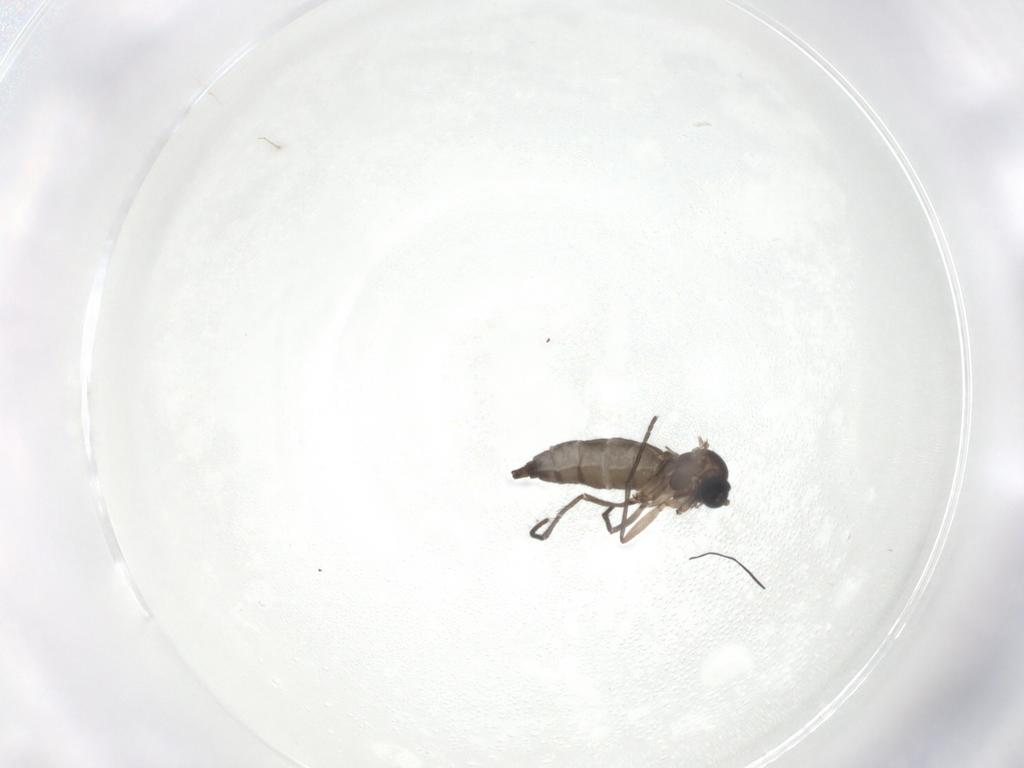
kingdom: Animalia
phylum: Arthropoda
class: Insecta
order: Diptera
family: Sciaridae
